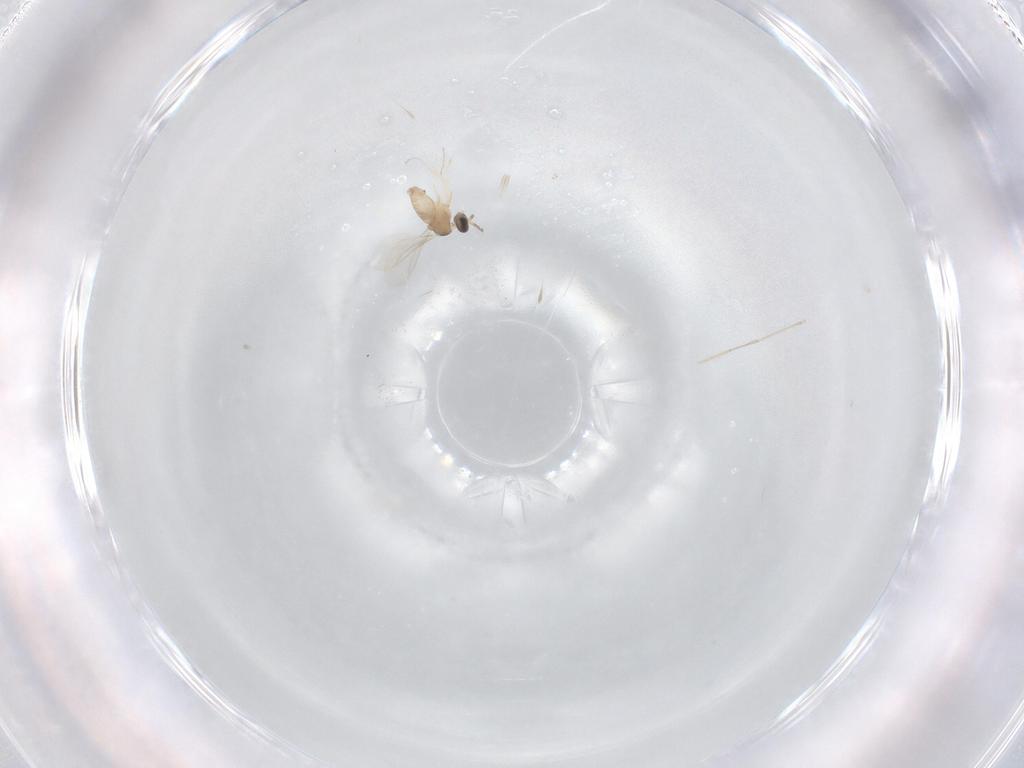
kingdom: Animalia
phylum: Arthropoda
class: Insecta
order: Diptera
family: Cecidomyiidae
